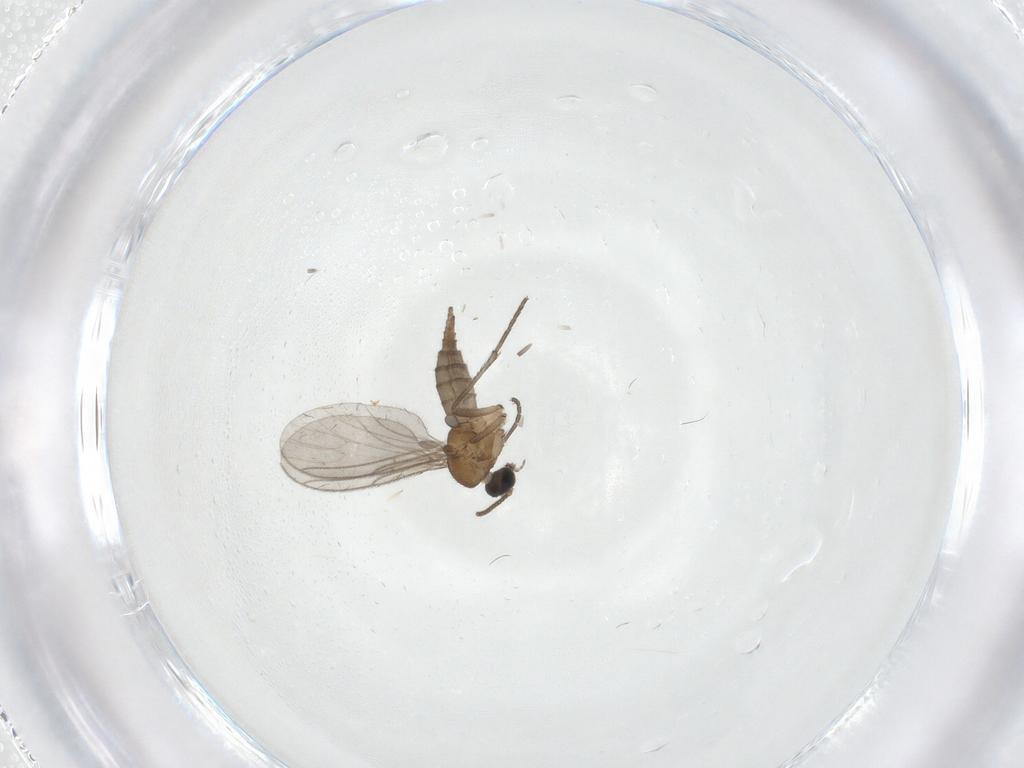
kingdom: Animalia
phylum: Arthropoda
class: Insecta
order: Diptera
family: Sciaridae
